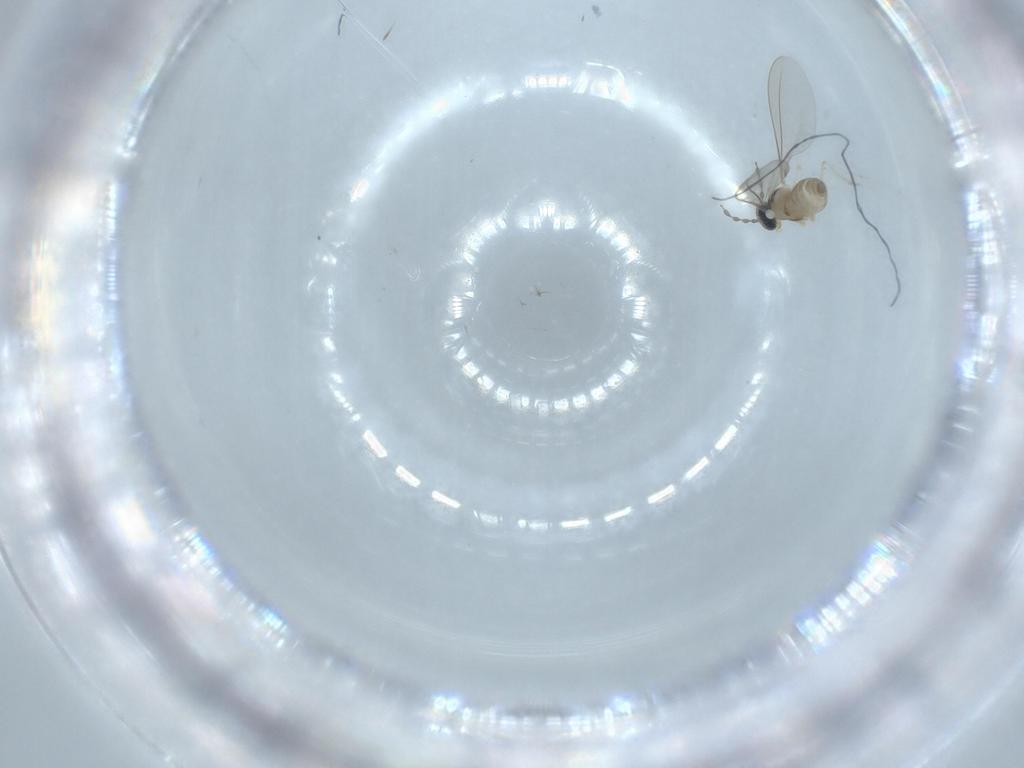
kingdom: Animalia
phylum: Arthropoda
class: Insecta
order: Diptera
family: Cecidomyiidae
